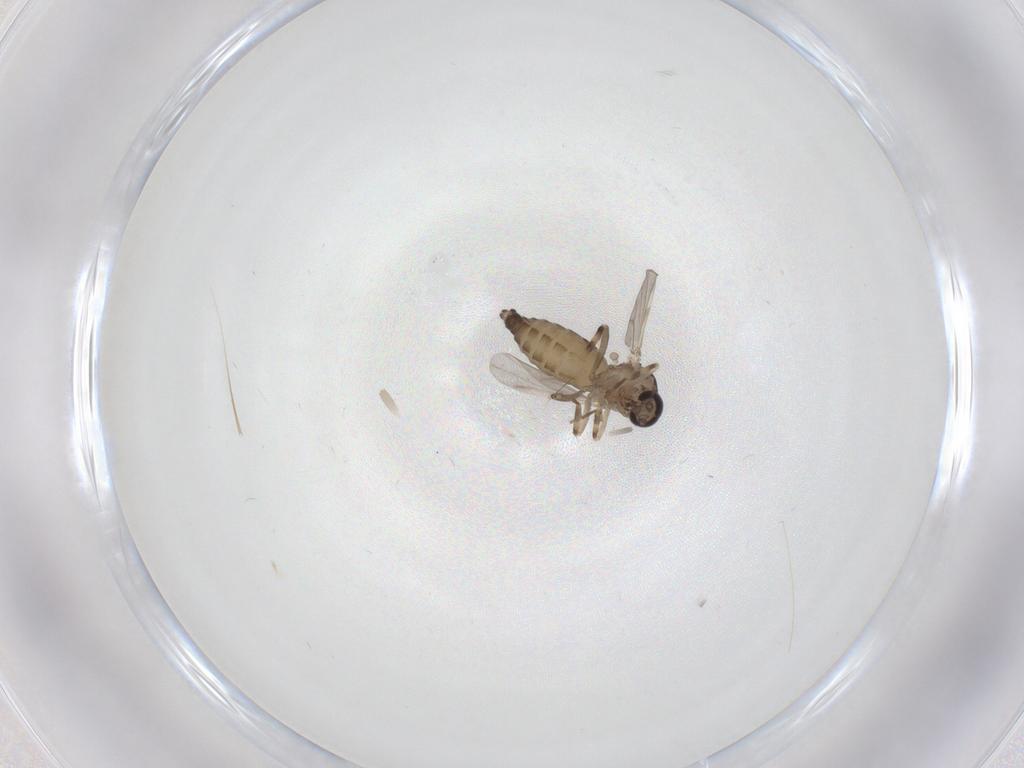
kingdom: Animalia
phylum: Arthropoda
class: Insecta
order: Diptera
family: Ceratopogonidae
